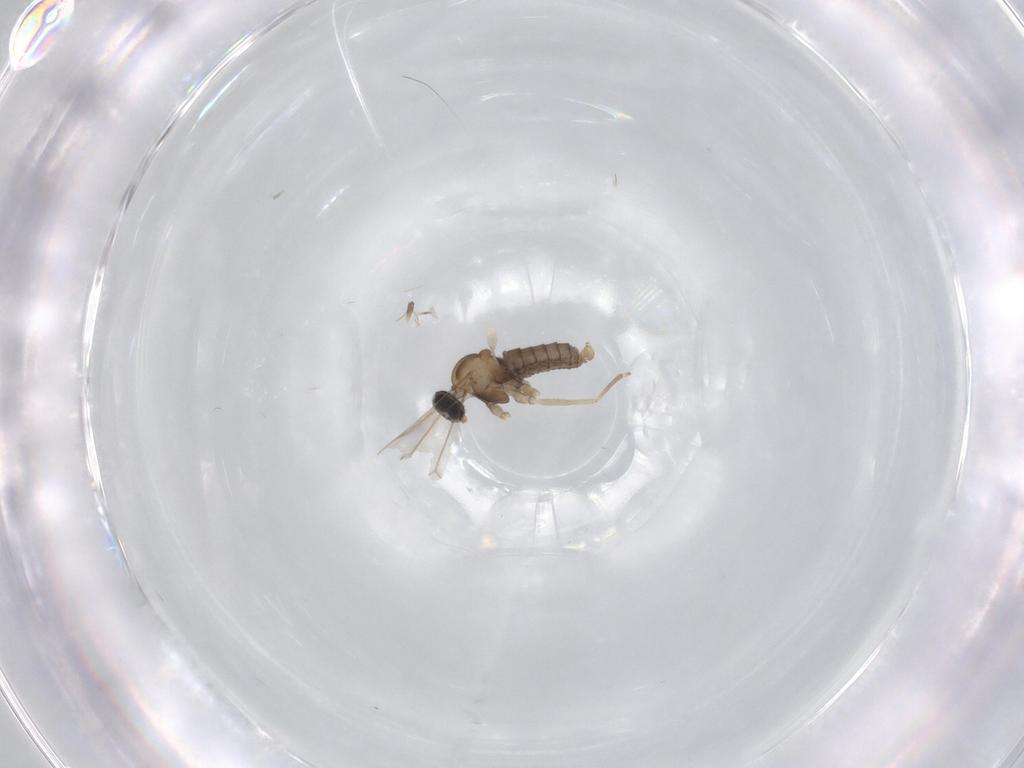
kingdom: Animalia
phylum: Arthropoda
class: Insecta
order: Diptera
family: Cecidomyiidae
